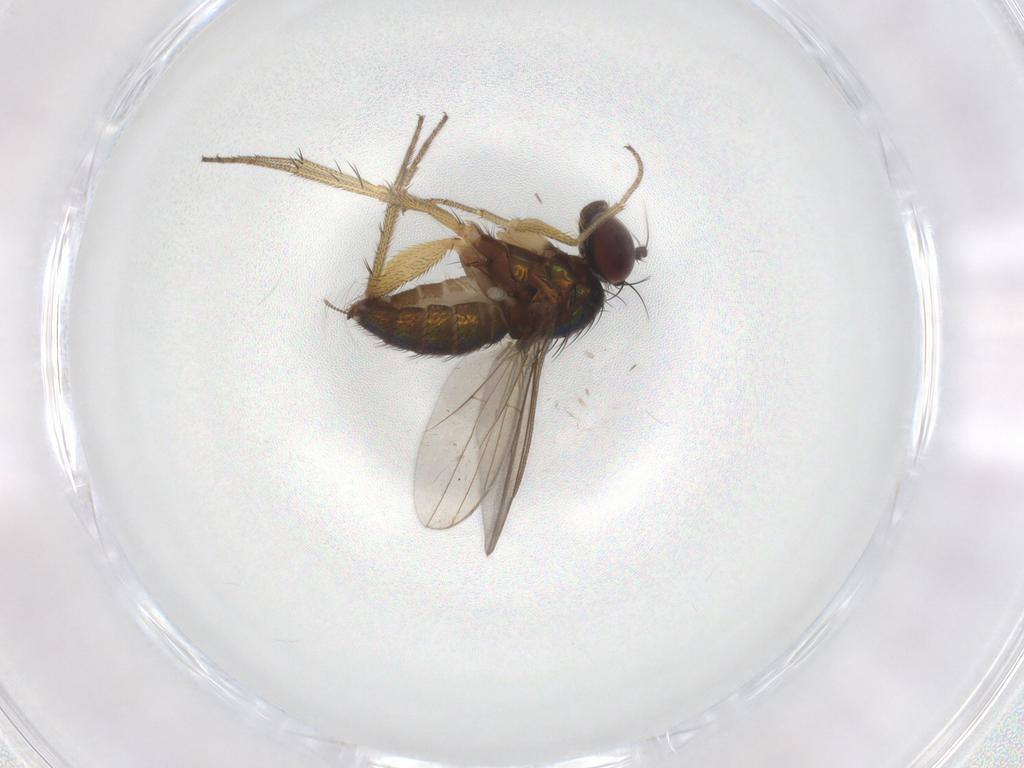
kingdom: Animalia
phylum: Arthropoda
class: Insecta
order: Diptera
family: Chironomidae
